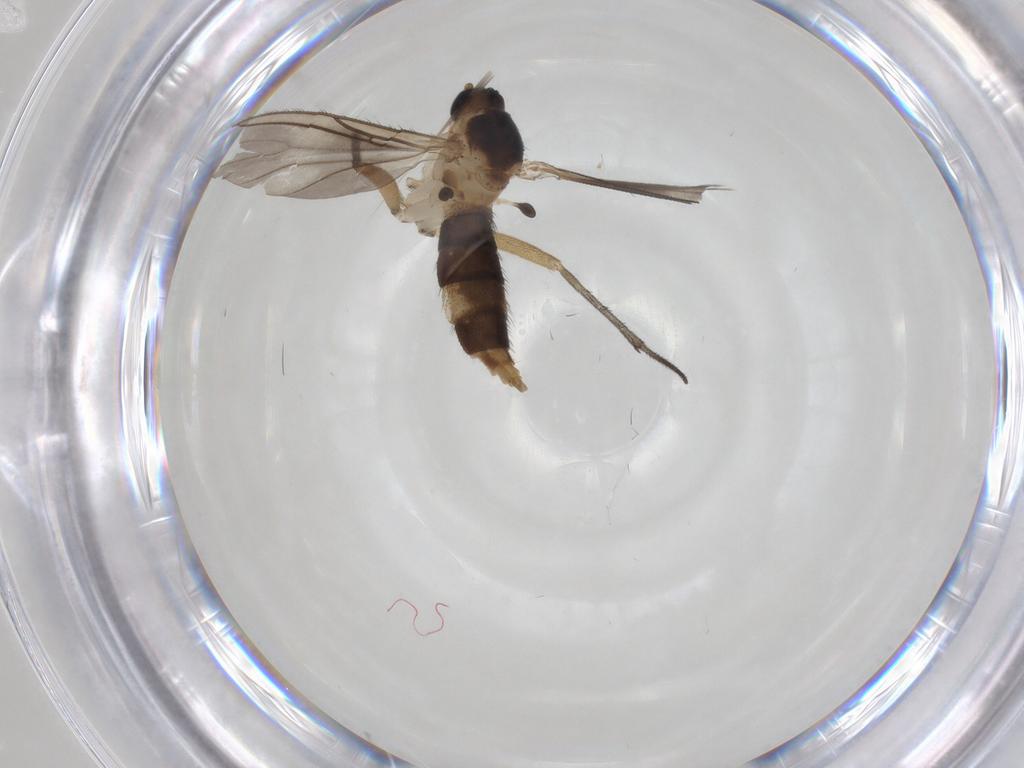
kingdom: Animalia
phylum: Arthropoda
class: Insecta
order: Diptera
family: Sciaridae
